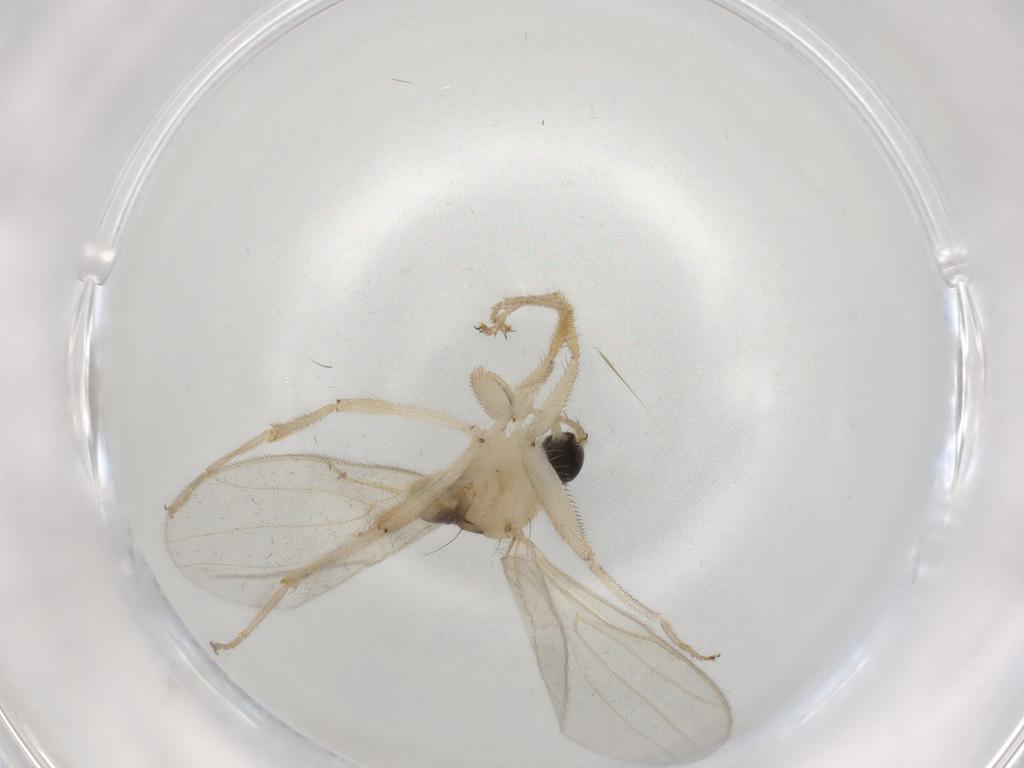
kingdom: Animalia
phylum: Arthropoda
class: Insecta
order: Diptera
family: Hybotidae
